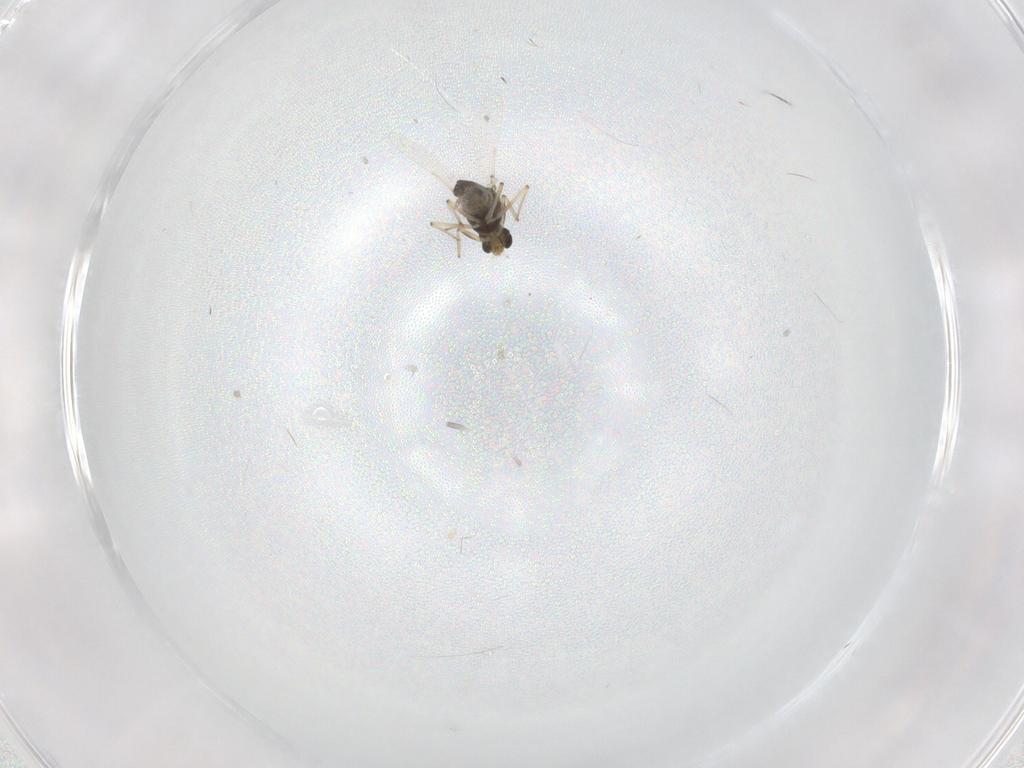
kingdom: Animalia
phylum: Arthropoda
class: Insecta
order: Diptera
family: Chironomidae
